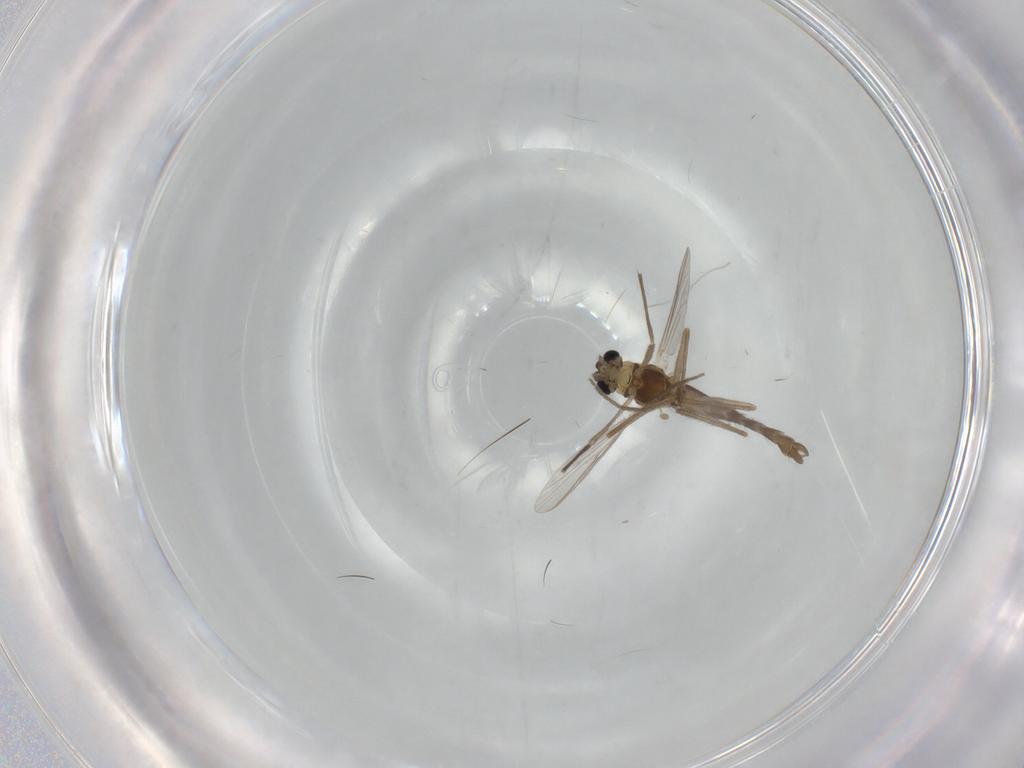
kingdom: Animalia
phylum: Arthropoda
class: Insecta
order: Diptera
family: Chironomidae
